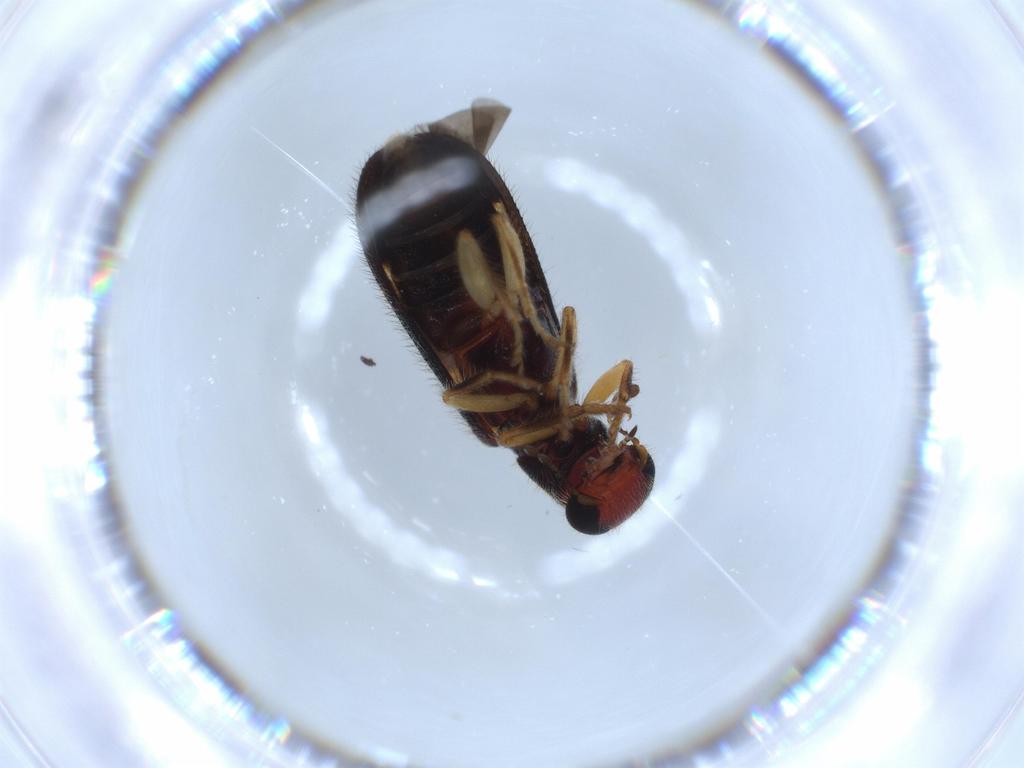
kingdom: Animalia
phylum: Arthropoda
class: Insecta
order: Coleoptera
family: Cleridae
